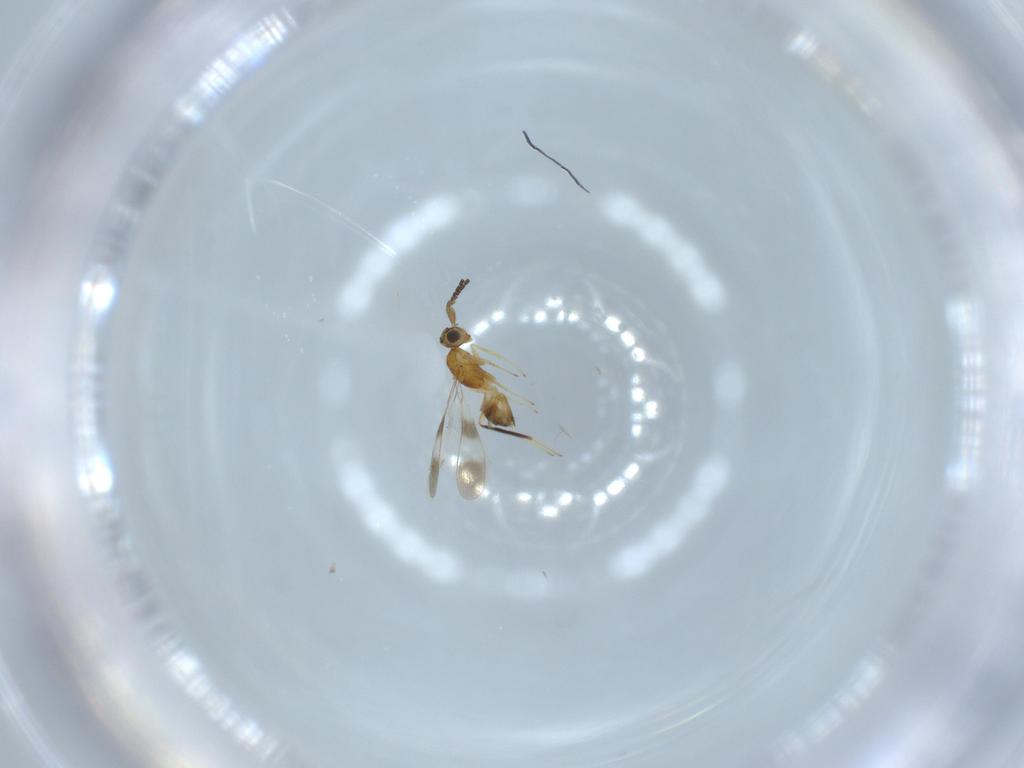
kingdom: Animalia
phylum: Arthropoda
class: Insecta
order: Hymenoptera
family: Mymaridae
